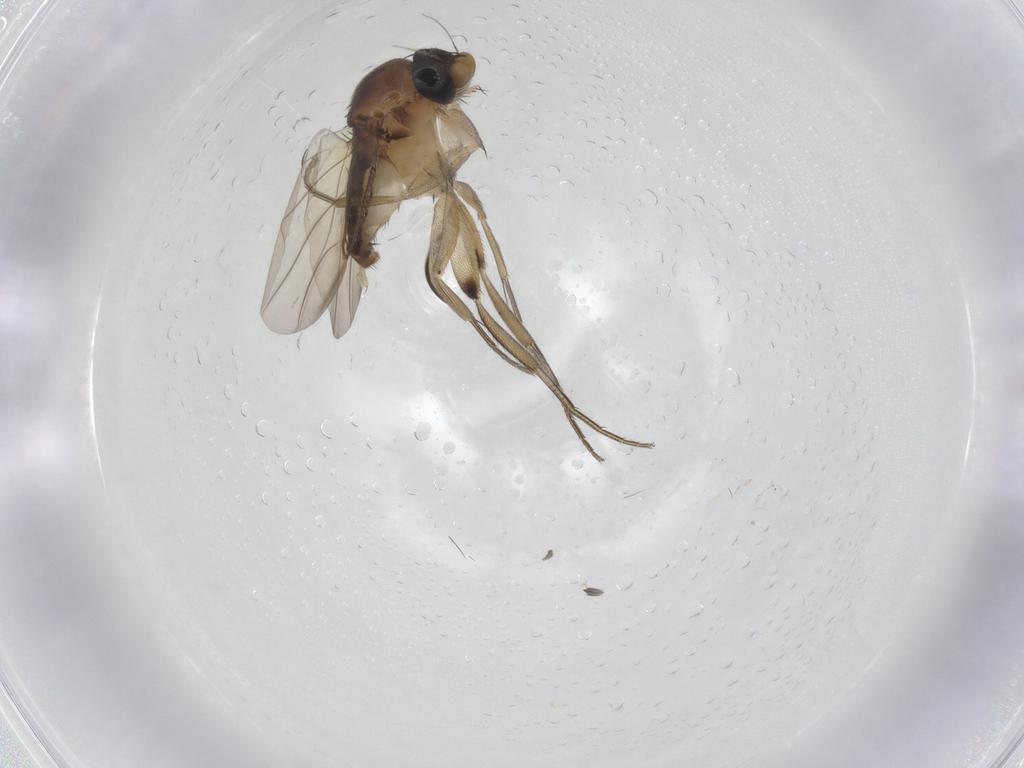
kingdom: Animalia
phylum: Arthropoda
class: Insecta
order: Diptera
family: Phoridae
